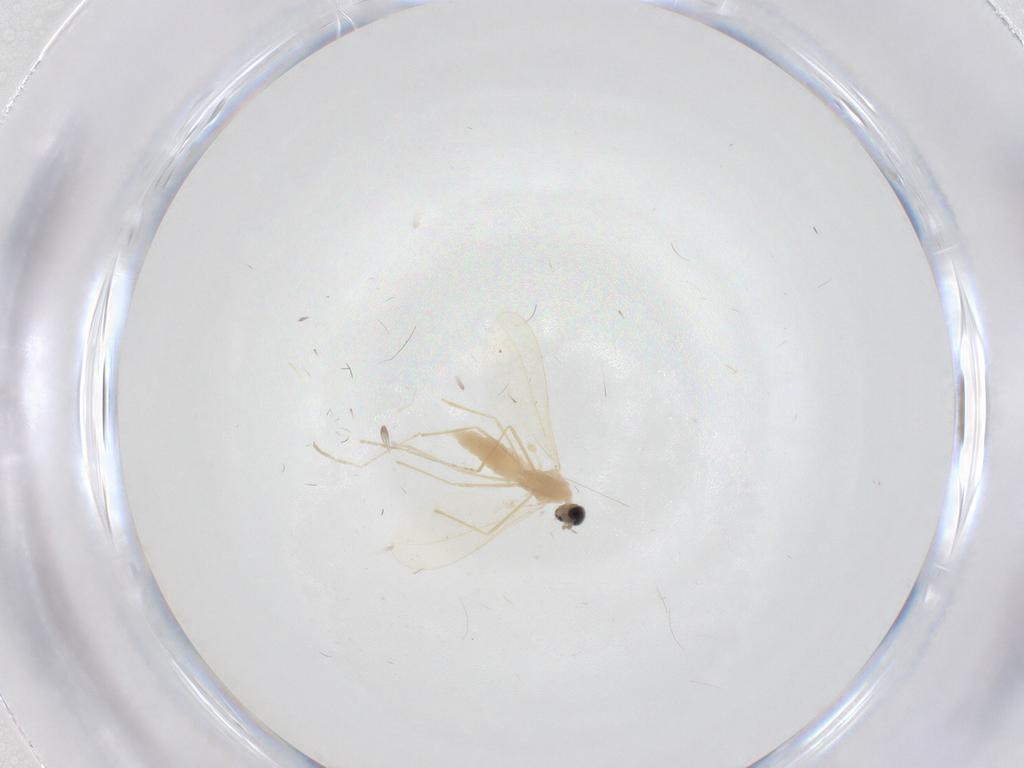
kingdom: Animalia
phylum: Arthropoda
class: Insecta
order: Diptera
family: Cecidomyiidae
